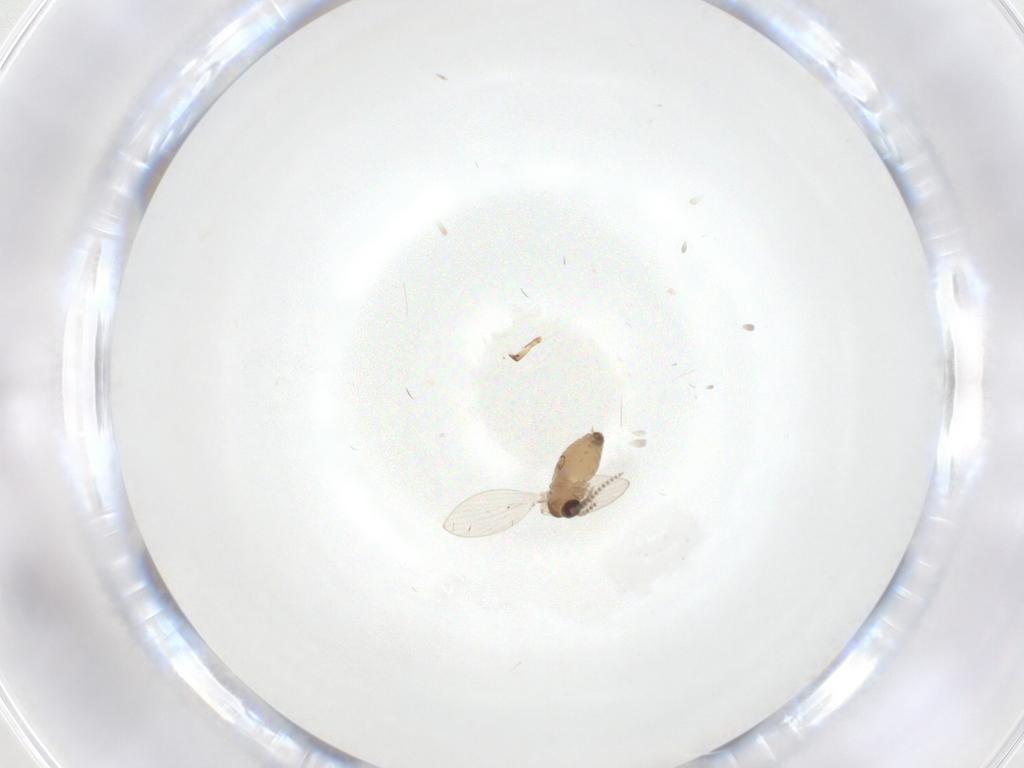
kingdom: Animalia
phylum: Arthropoda
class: Insecta
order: Diptera
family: Psychodidae
